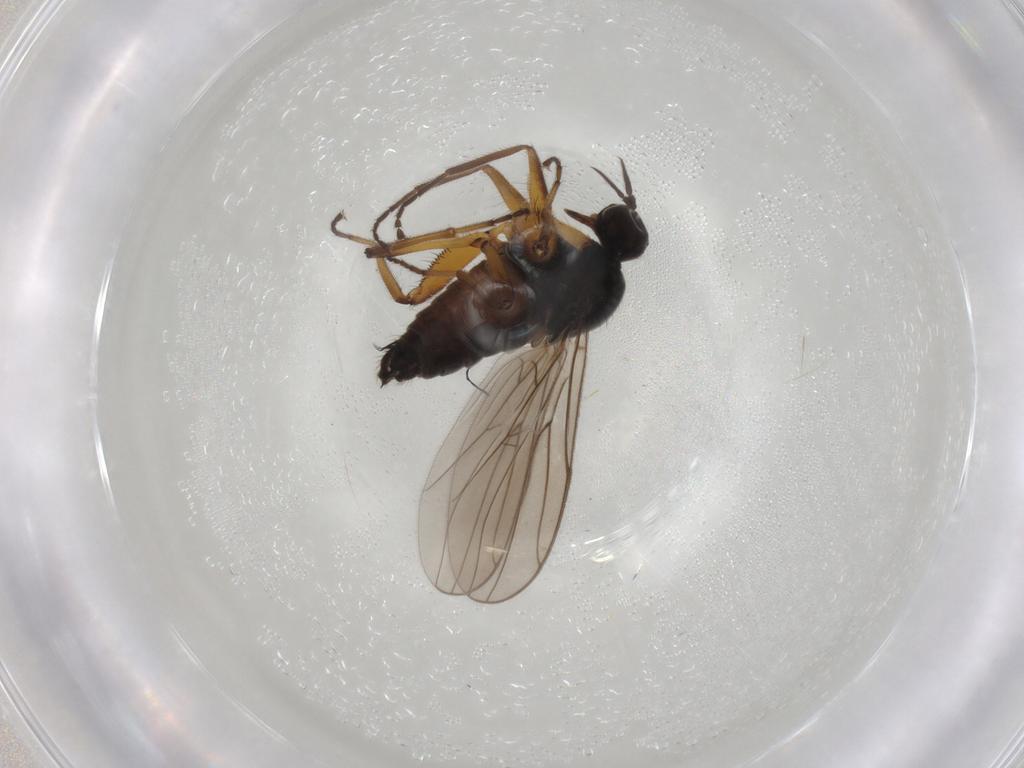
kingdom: Animalia
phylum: Arthropoda
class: Insecta
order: Diptera
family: Hybotidae
